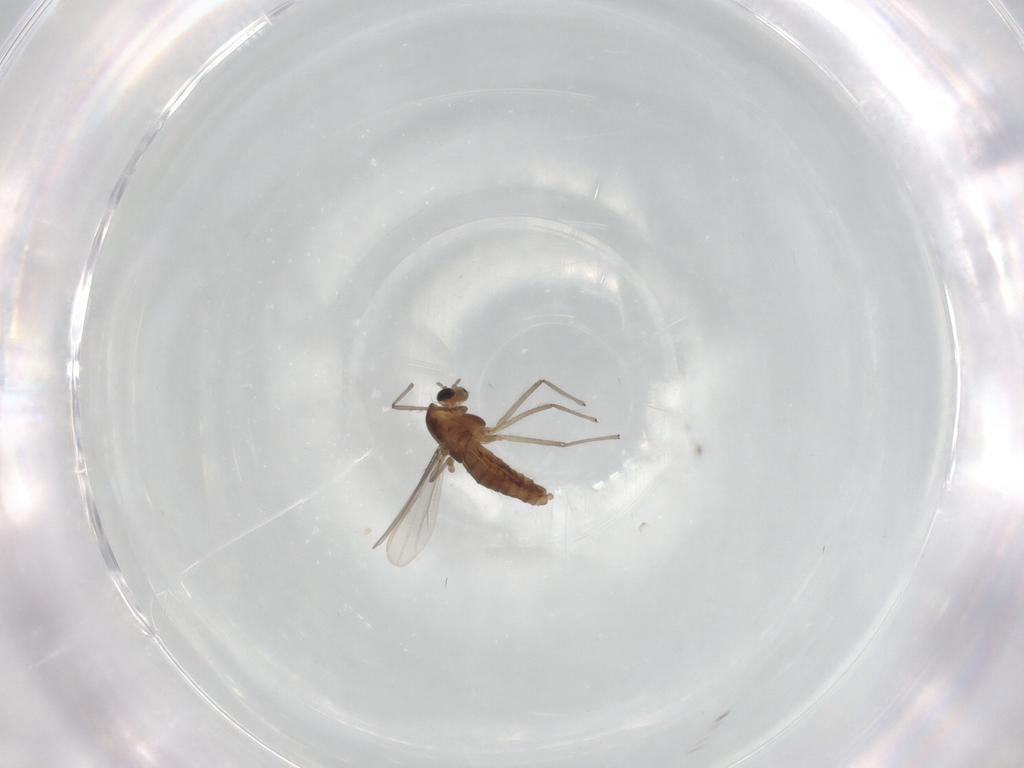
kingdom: Animalia
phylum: Arthropoda
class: Insecta
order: Diptera
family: Chironomidae
